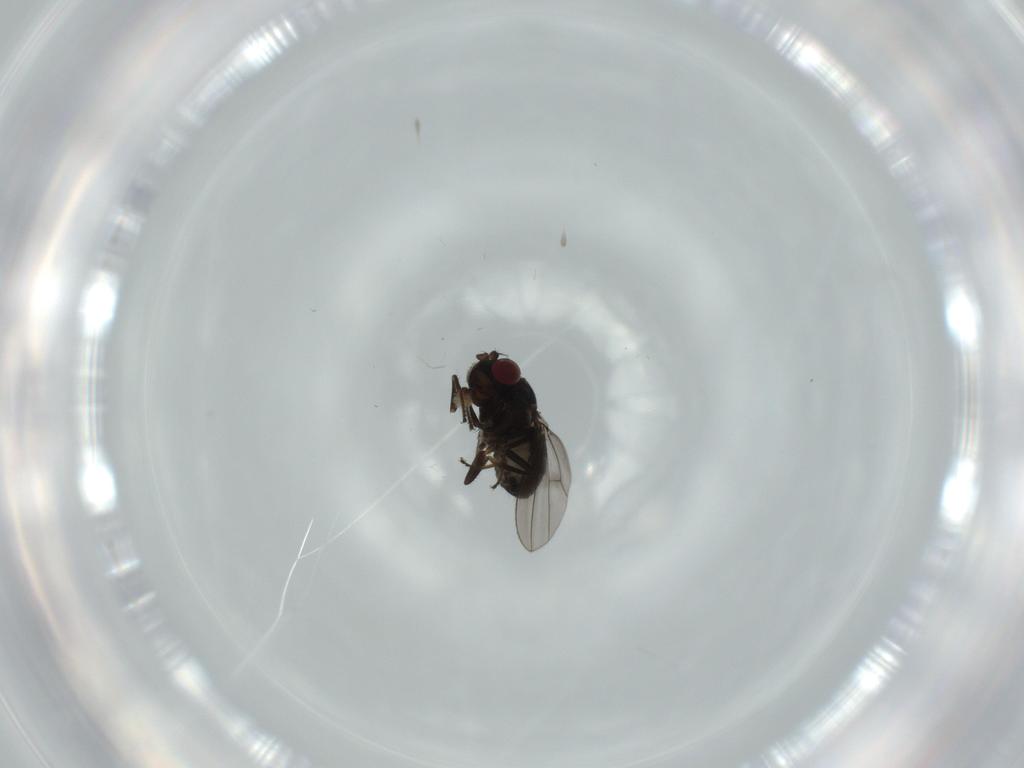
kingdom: Animalia
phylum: Arthropoda
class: Insecta
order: Diptera
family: Ephydridae
